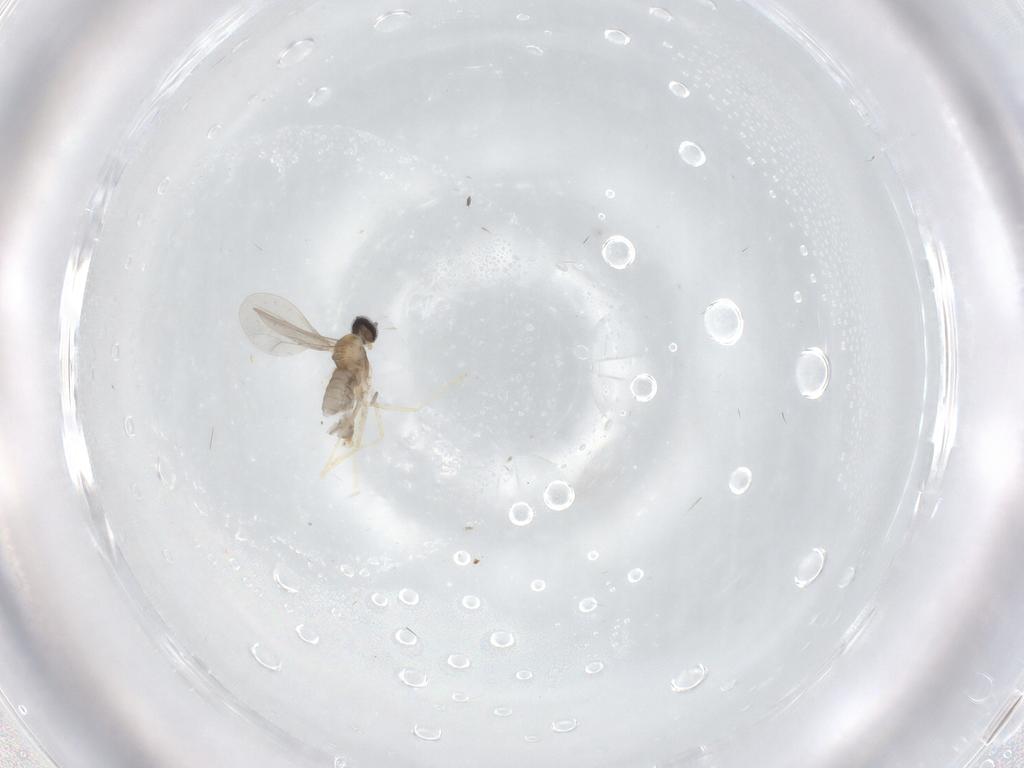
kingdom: Animalia
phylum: Arthropoda
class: Insecta
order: Diptera
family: Cecidomyiidae
